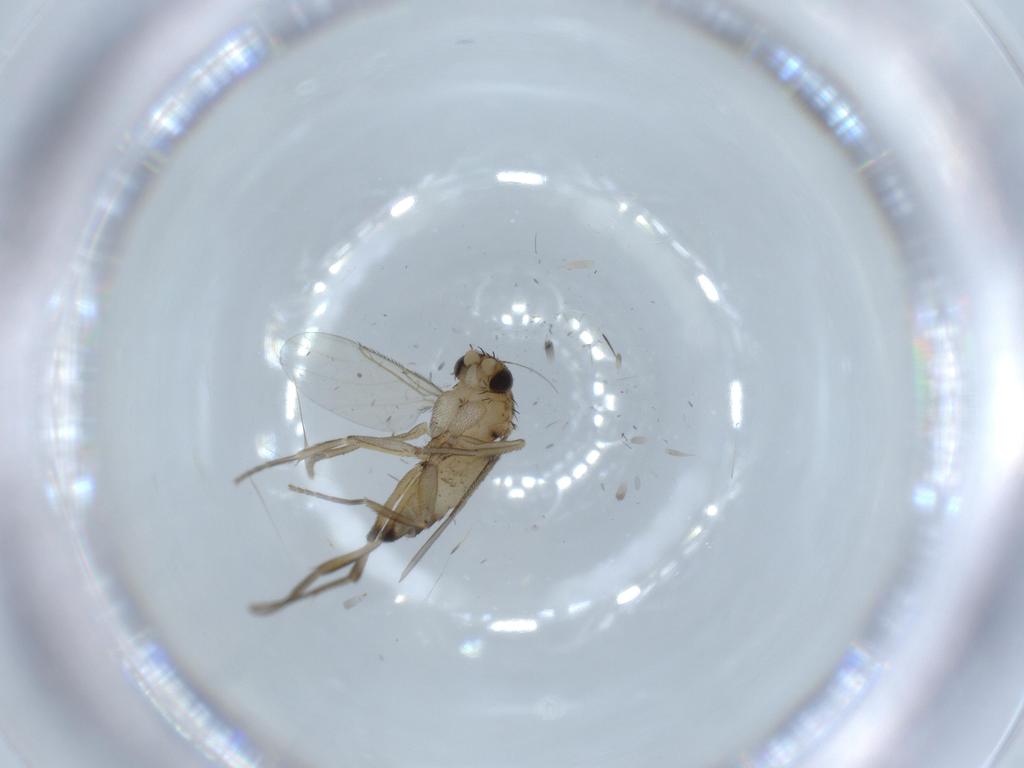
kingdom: Animalia
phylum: Arthropoda
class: Insecta
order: Diptera
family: Phoridae
